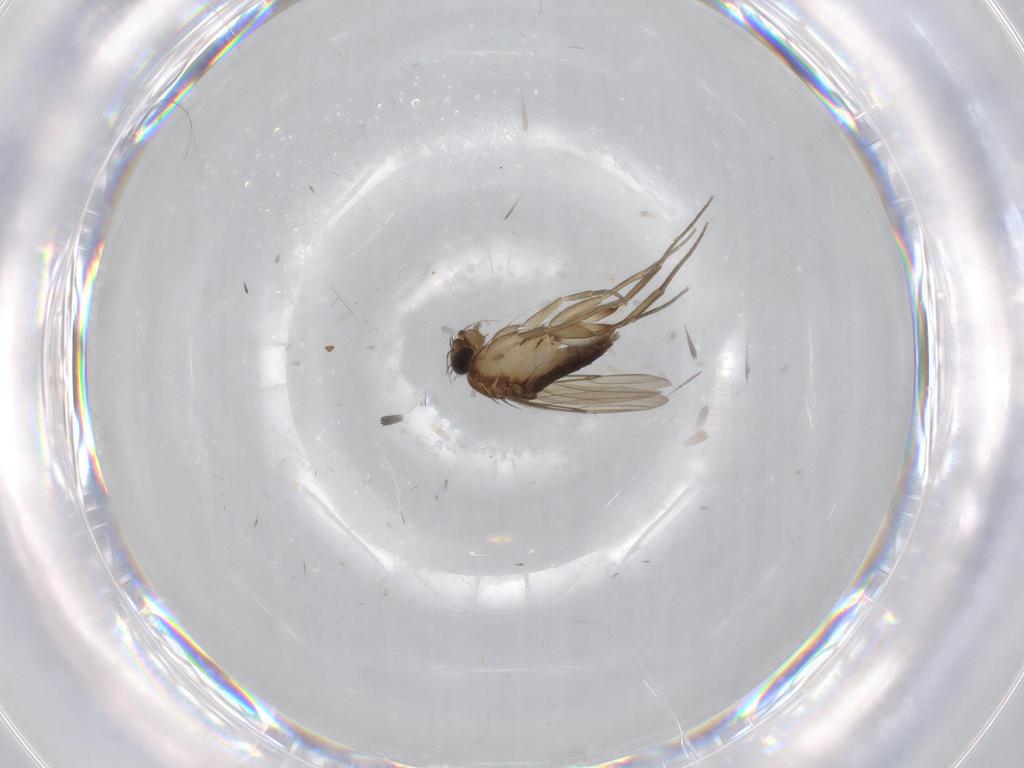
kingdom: Animalia
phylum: Arthropoda
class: Insecta
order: Diptera
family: Phoridae
